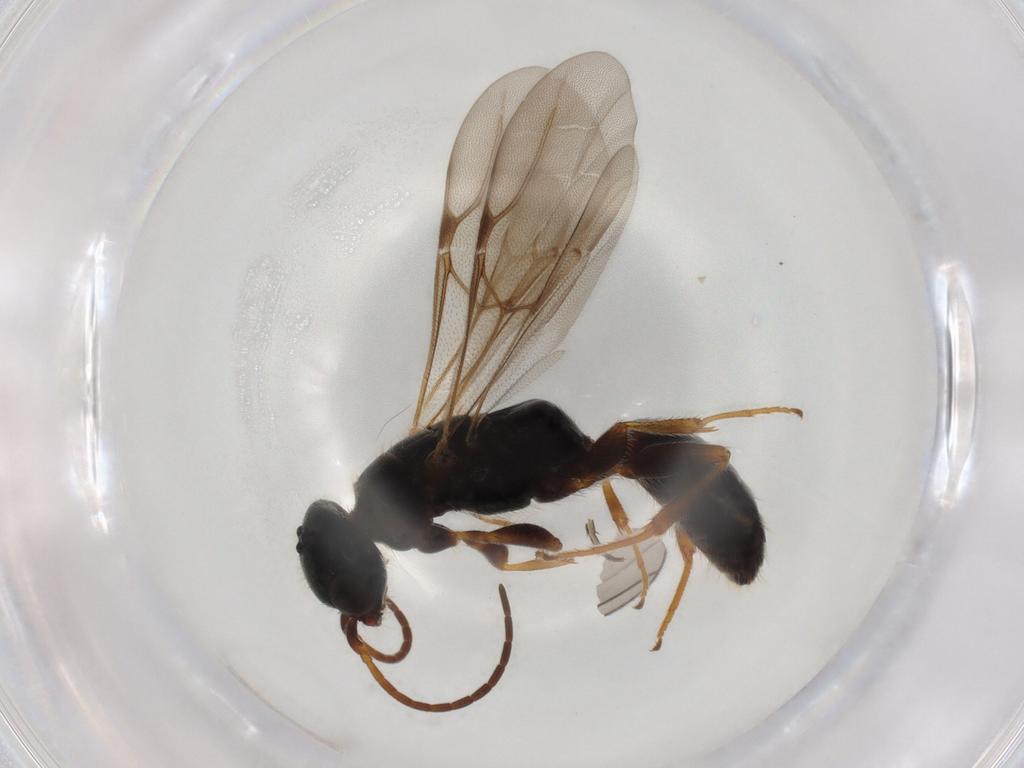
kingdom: Animalia
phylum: Arthropoda
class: Insecta
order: Hymenoptera
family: Bethylidae
